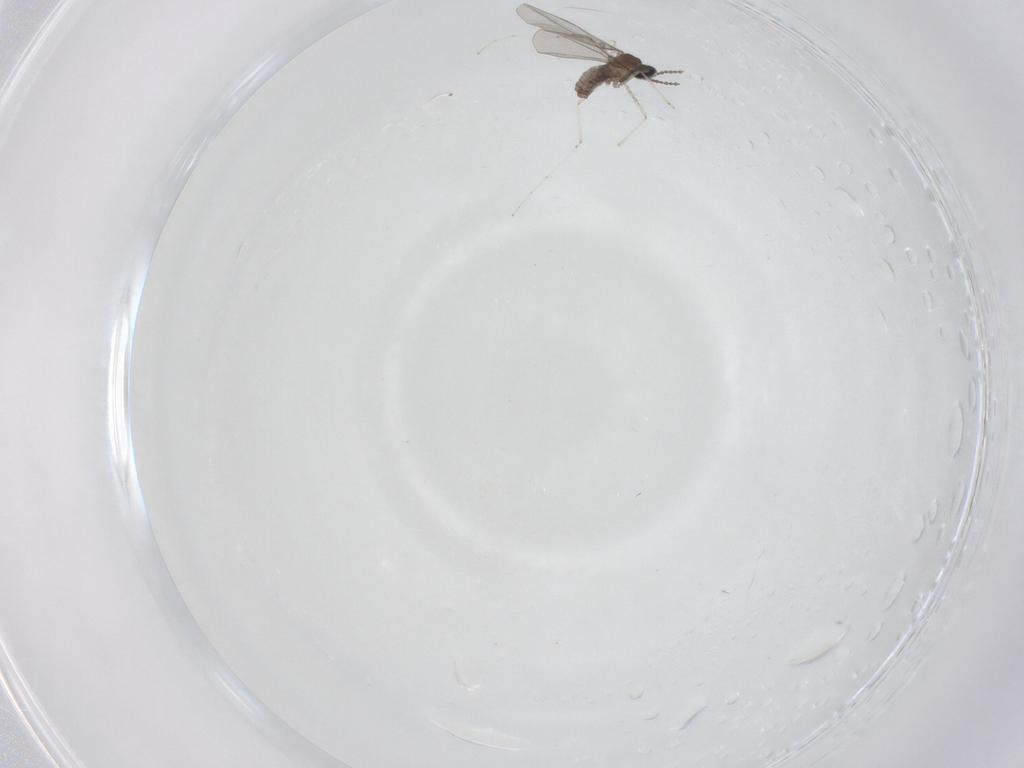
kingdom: Animalia
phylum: Arthropoda
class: Insecta
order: Diptera
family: Cecidomyiidae
